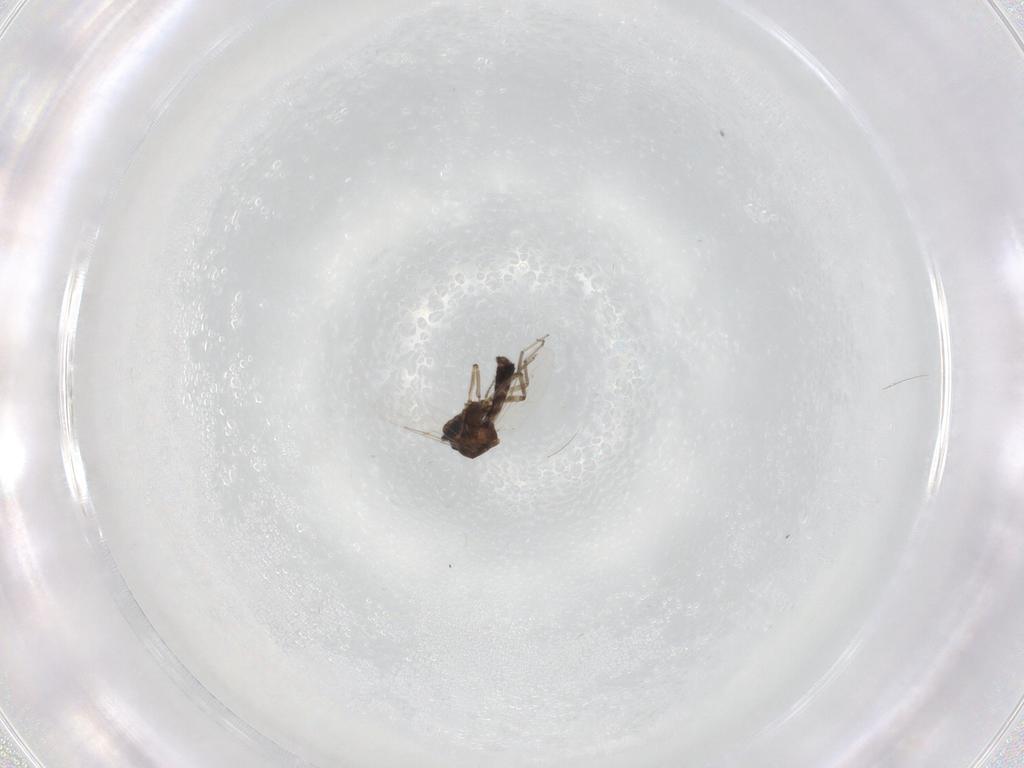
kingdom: Animalia
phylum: Arthropoda
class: Insecta
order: Diptera
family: Ceratopogonidae
